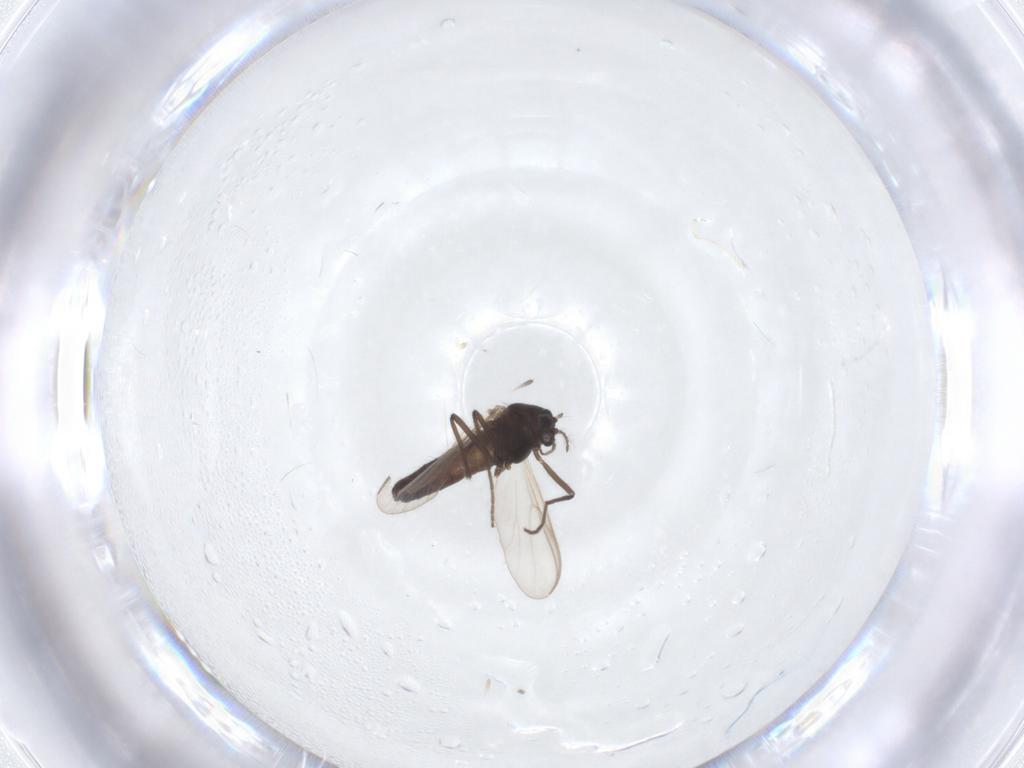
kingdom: Animalia
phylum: Arthropoda
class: Insecta
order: Diptera
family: Chironomidae
